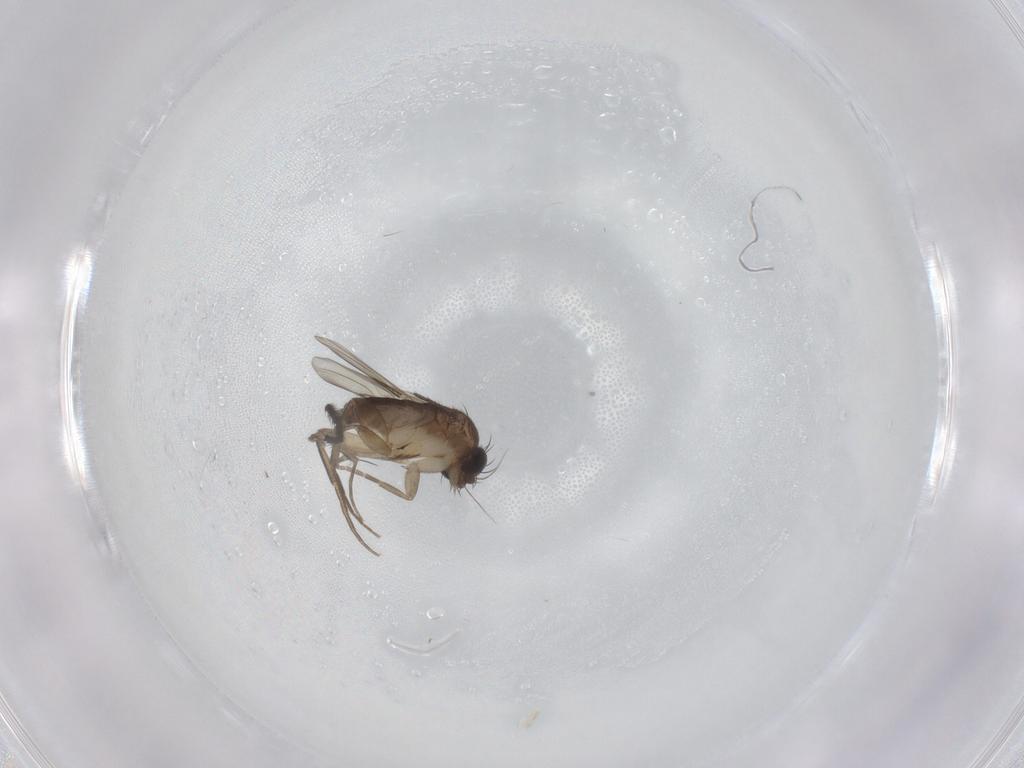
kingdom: Animalia
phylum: Arthropoda
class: Insecta
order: Diptera
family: Phoridae
